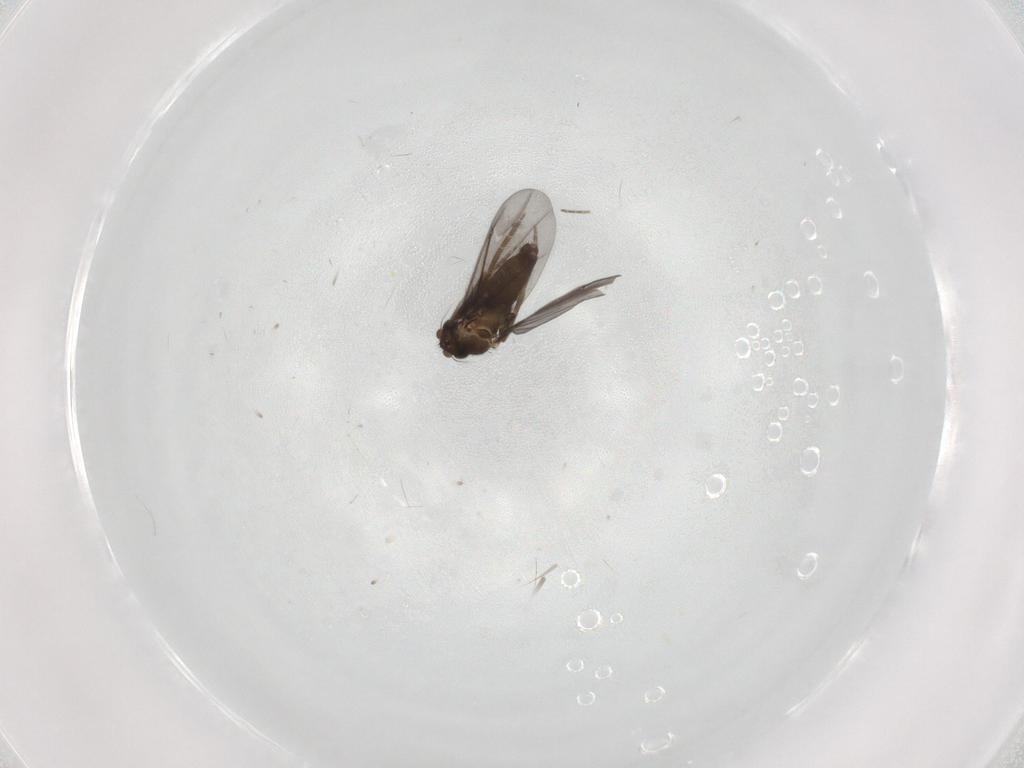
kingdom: Animalia
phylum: Arthropoda
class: Insecta
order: Diptera
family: Phoridae
